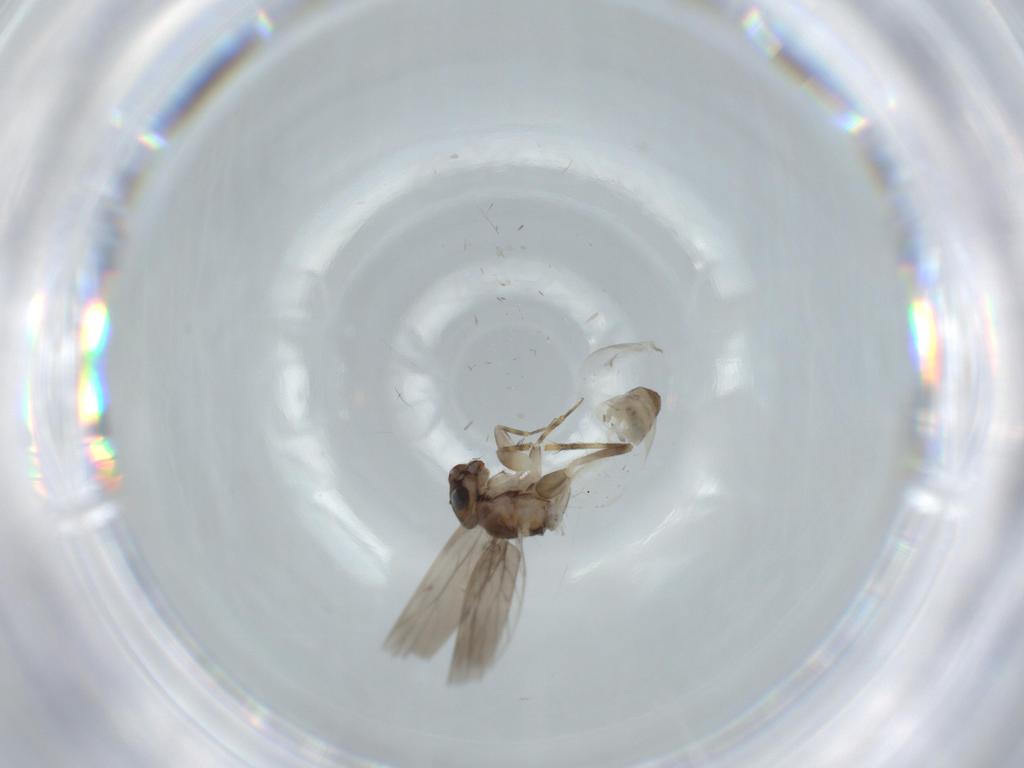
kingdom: Animalia
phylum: Arthropoda
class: Insecta
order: Psocodea
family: Lepidopsocidae
